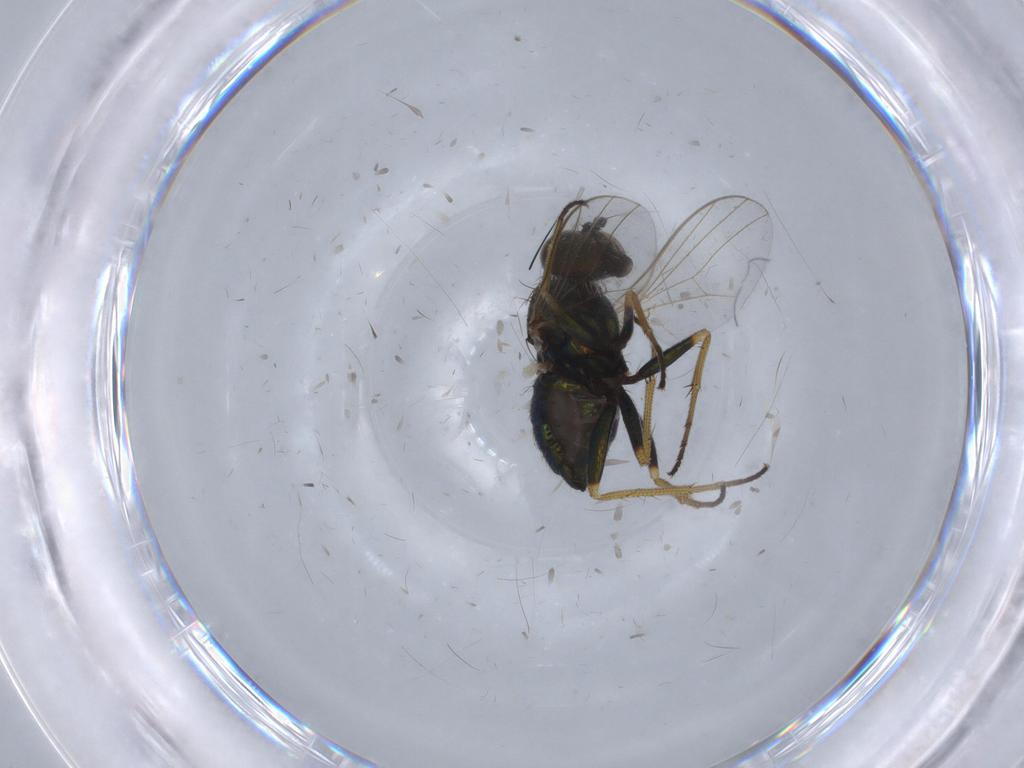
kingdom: Animalia
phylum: Arthropoda
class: Insecta
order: Diptera
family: Dolichopodidae
